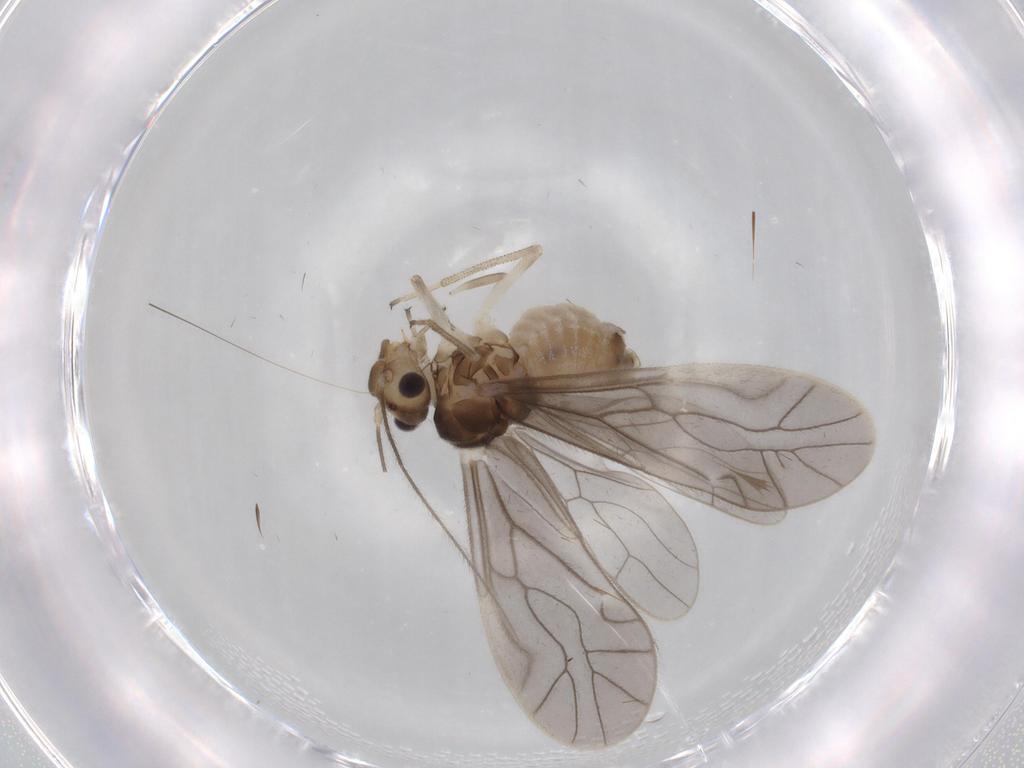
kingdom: Animalia
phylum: Arthropoda
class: Insecta
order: Psocodea
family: Caeciliusidae
